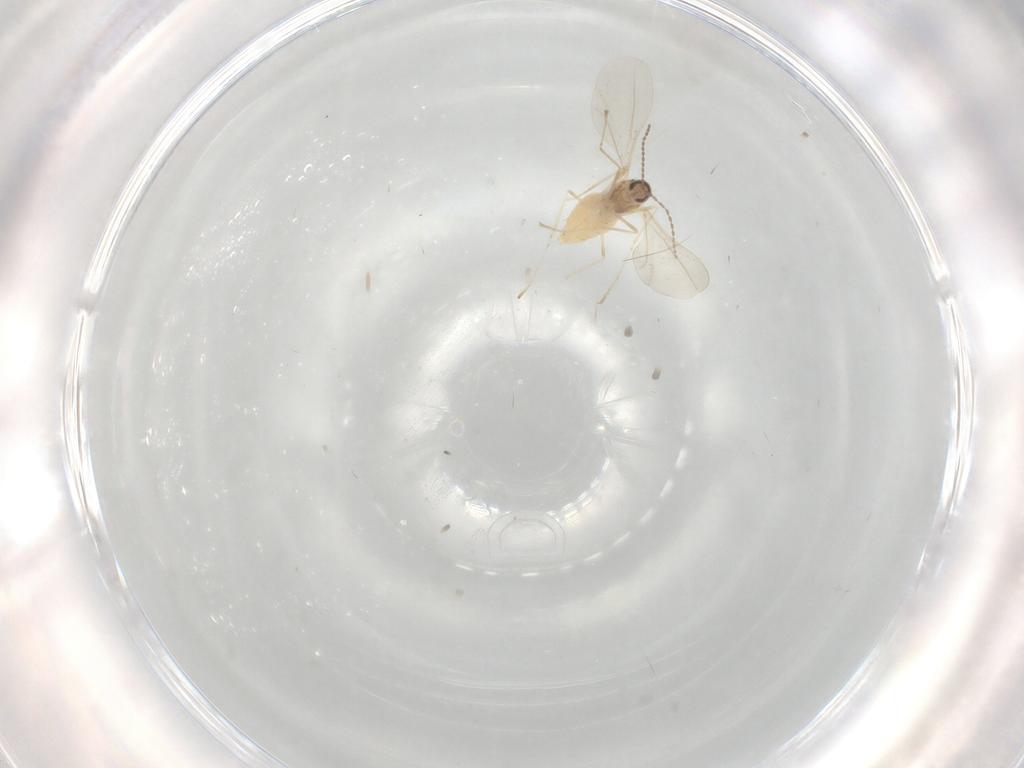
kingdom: Animalia
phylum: Arthropoda
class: Insecta
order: Diptera
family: Cecidomyiidae
